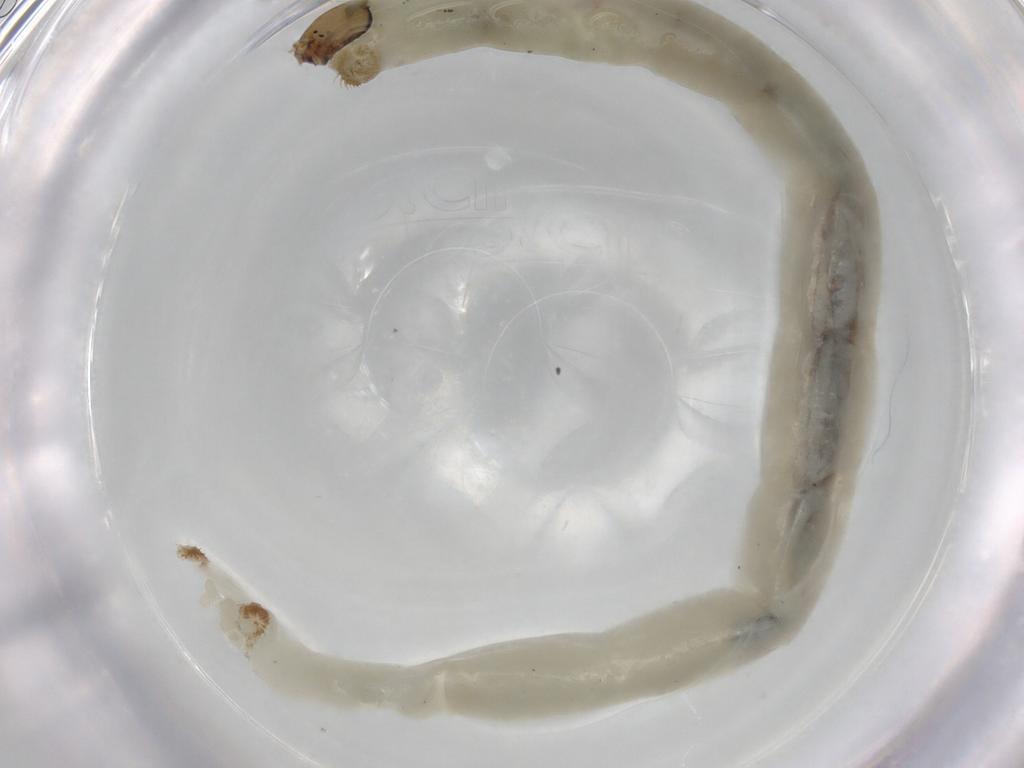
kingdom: Animalia
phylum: Arthropoda
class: Insecta
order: Diptera
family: Chironomidae
